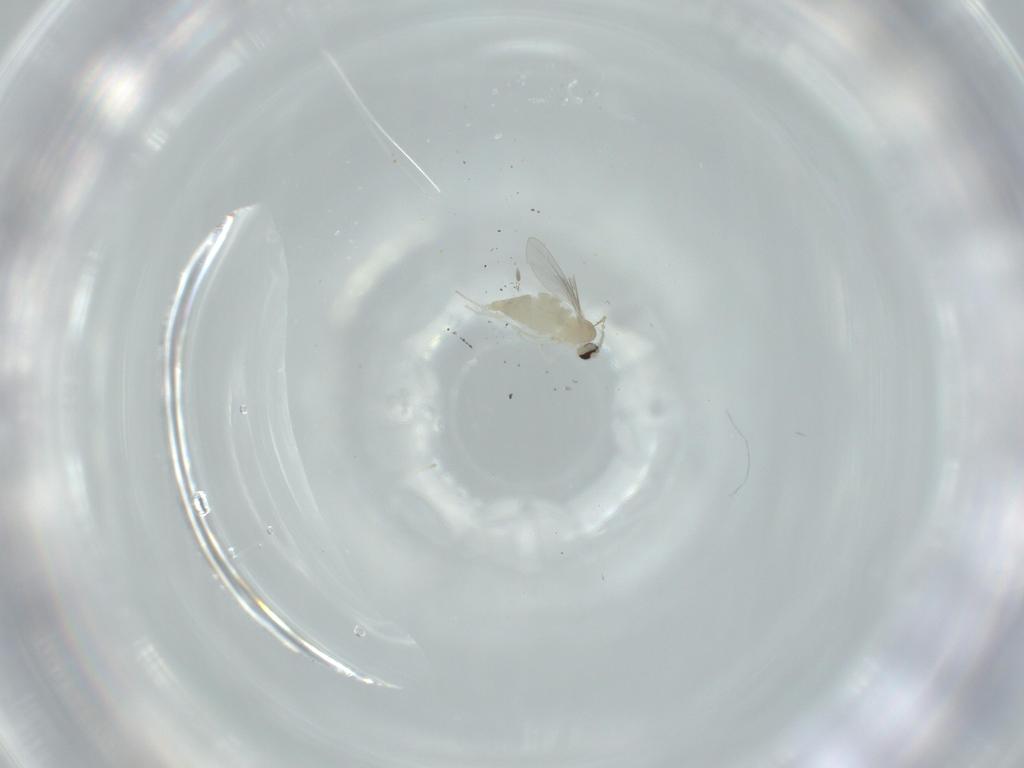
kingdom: Animalia
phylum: Arthropoda
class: Insecta
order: Diptera
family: Cecidomyiidae
